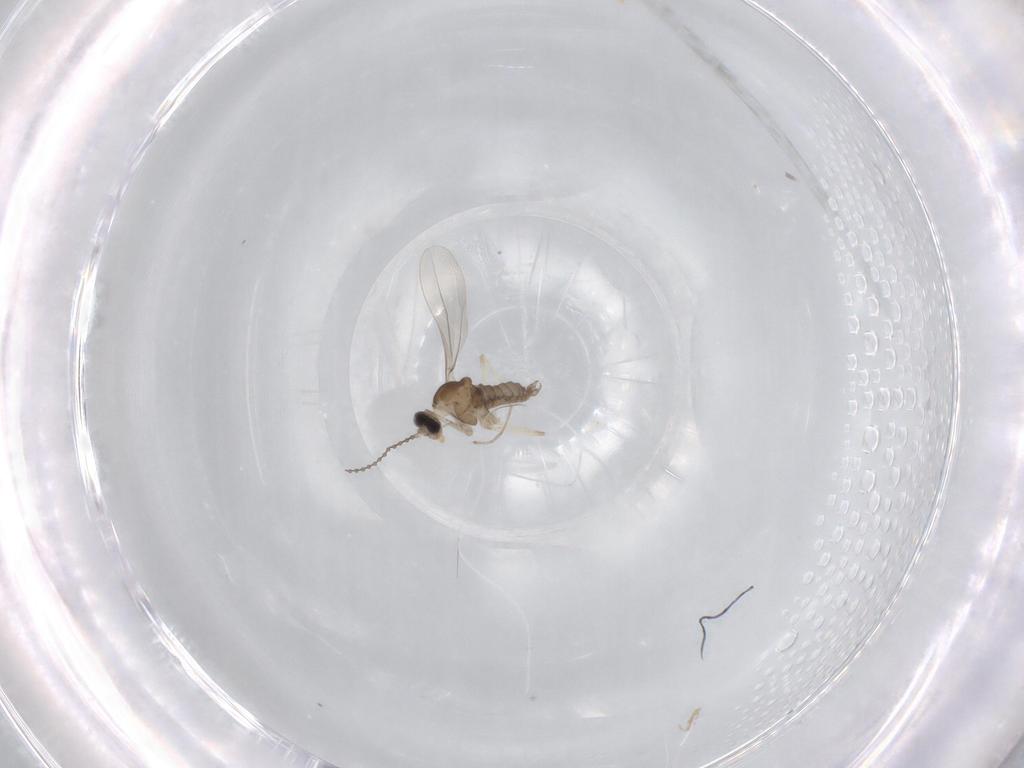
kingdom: Animalia
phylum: Arthropoda
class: Insecta
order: Diptera
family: Cecidomyiidae
